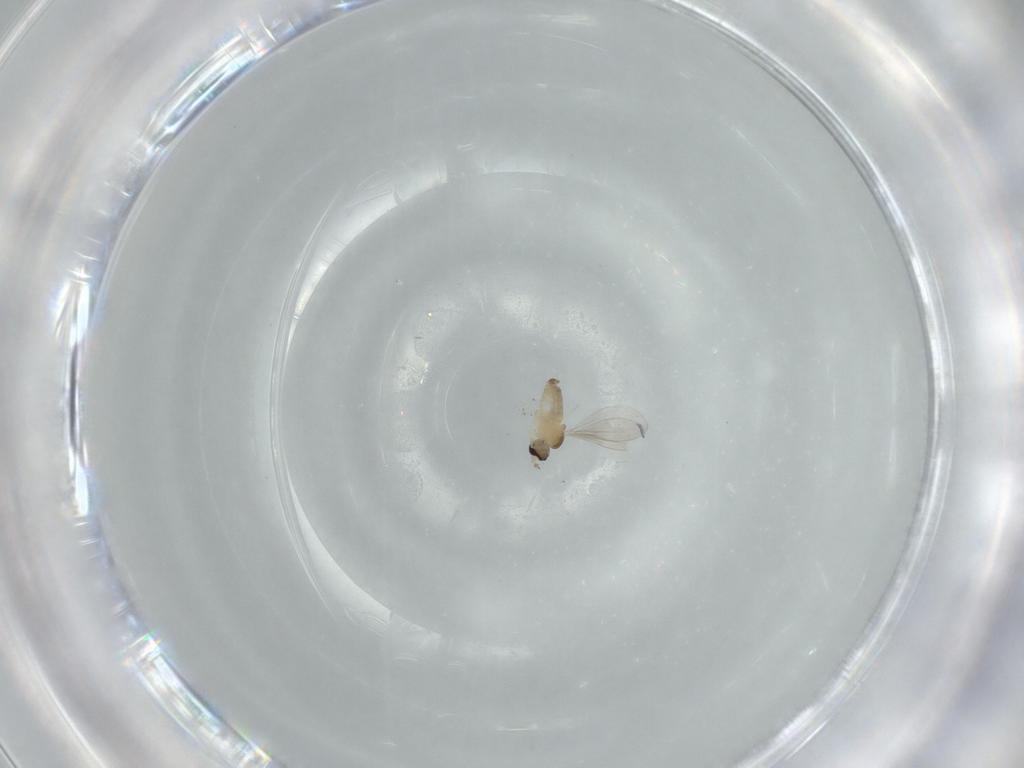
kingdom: Animalia
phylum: Arthropoda
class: Insecta
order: Diptera
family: Cecidomyiidae
